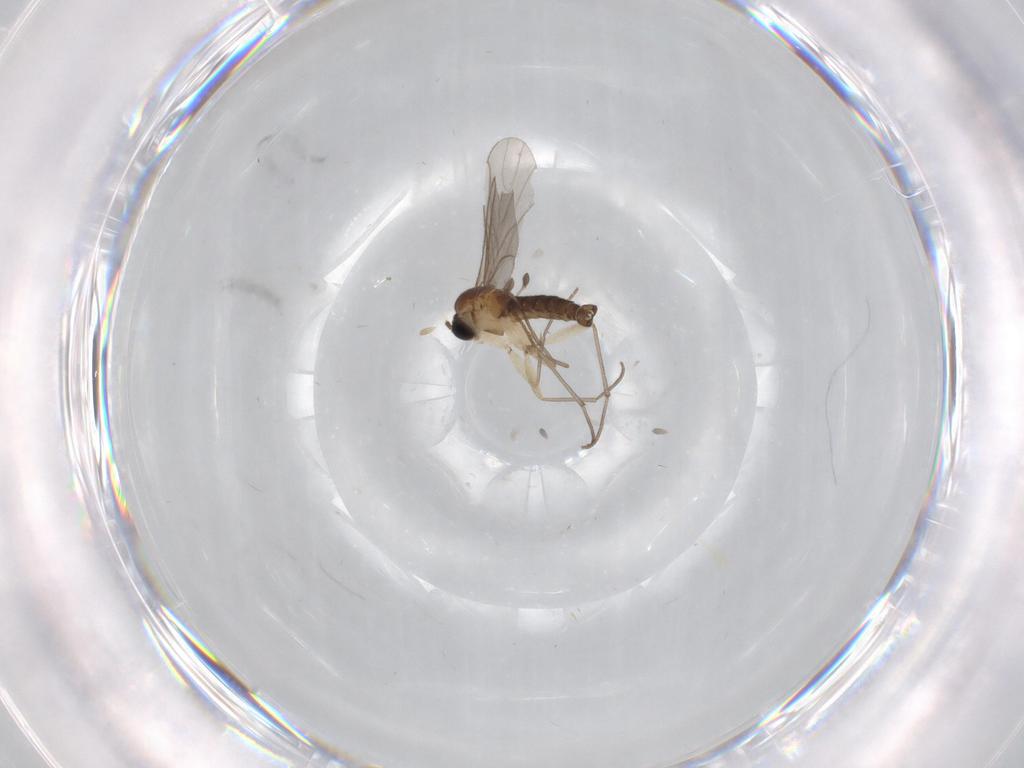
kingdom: Animalia
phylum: Arthropoda
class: Insecta
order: Diptera
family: Sciaridae
